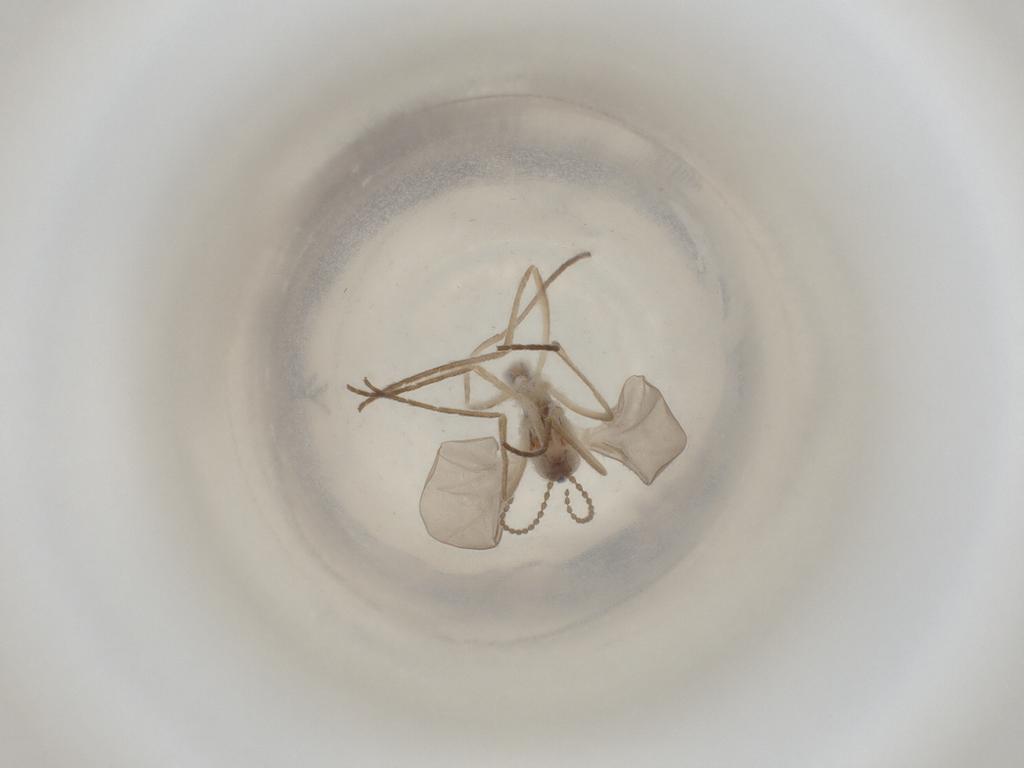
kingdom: Animalia
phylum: Arthropoda
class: Insecta
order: Diptera
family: Cecidomyiidae
